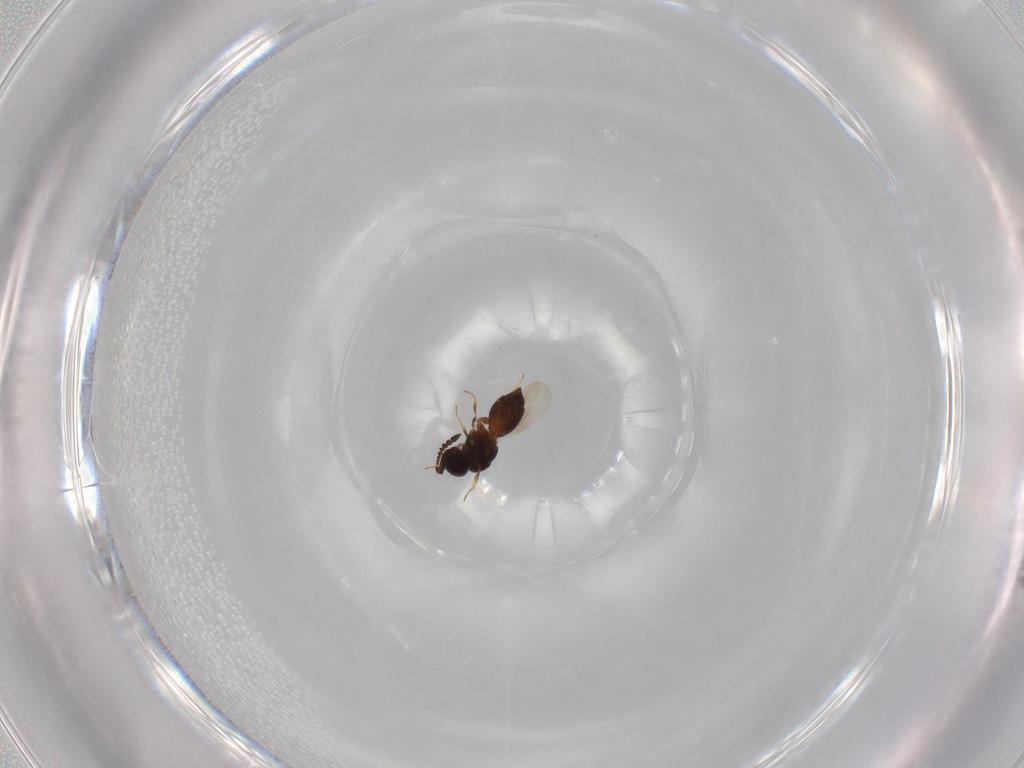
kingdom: Animalia
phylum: Arthropoda
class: Insecta
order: Hymenoptera
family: Ceraphronidae
